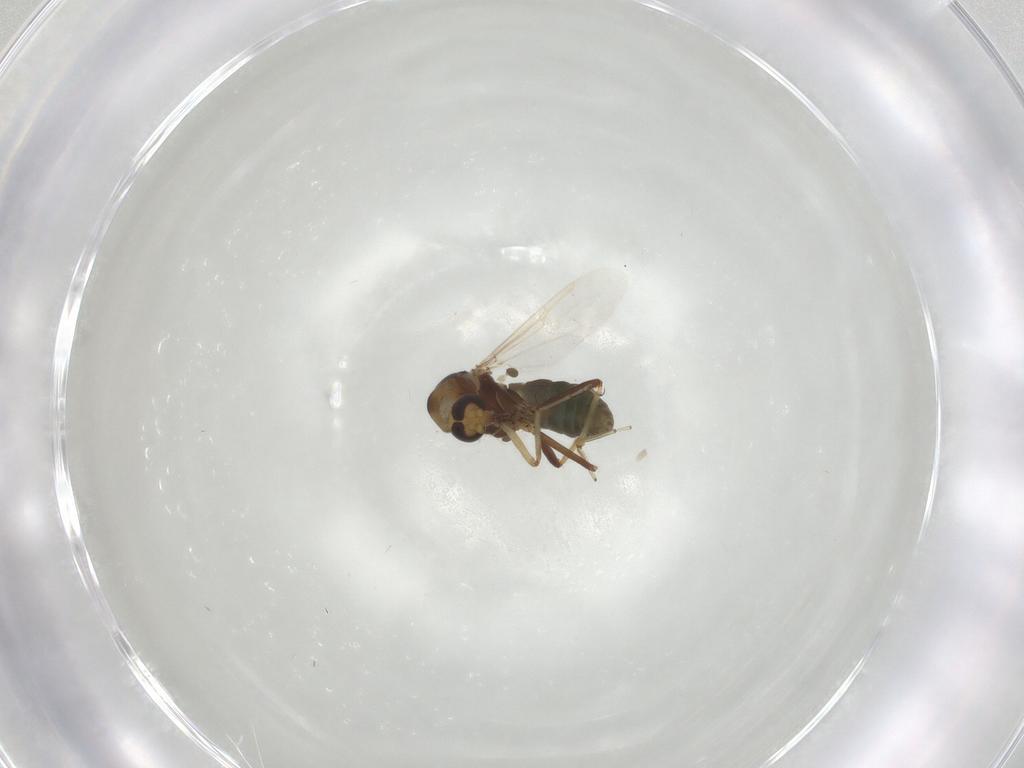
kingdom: Animalia
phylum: Arthropoda
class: Insecta
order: Diptera
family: Ceratopogonidae
